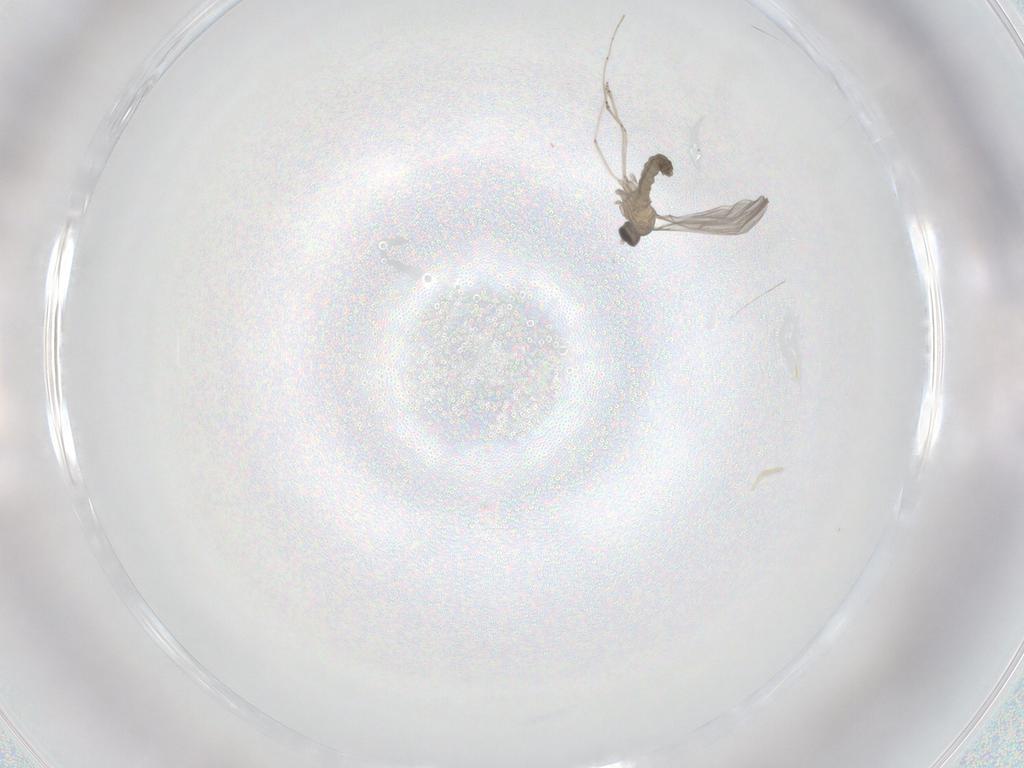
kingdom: Animalia
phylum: Arthropoda
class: Insecta
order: Diptera
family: Cecidomyiidae
